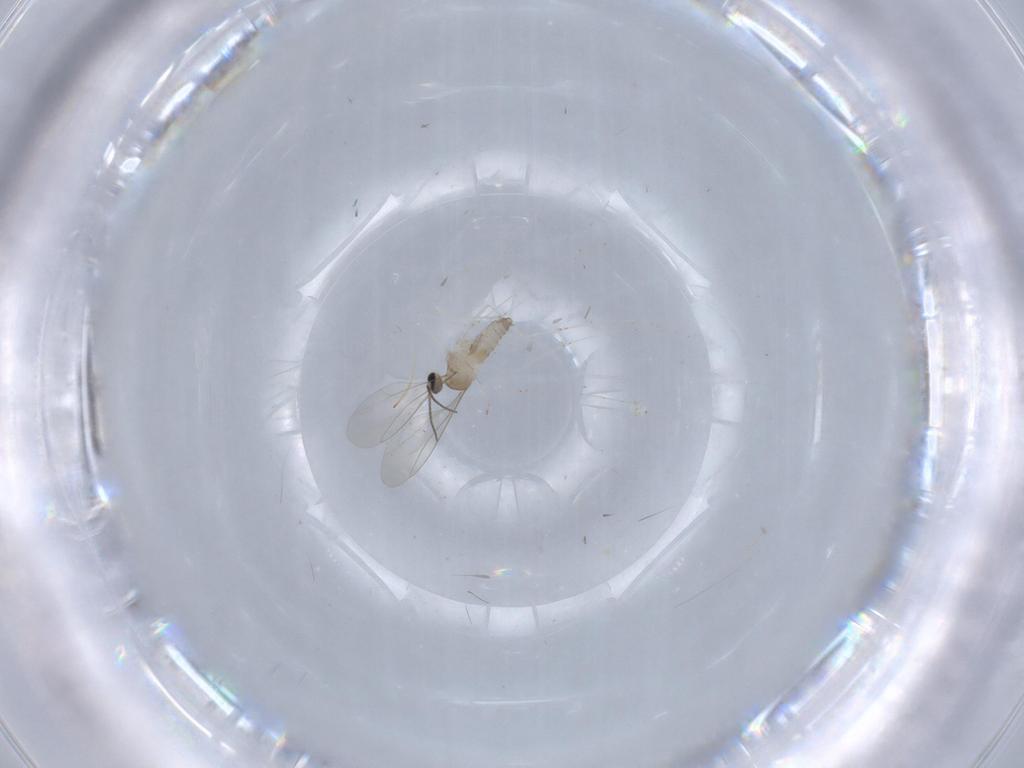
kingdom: Animalia
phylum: Arthropoda
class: Insecta
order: Diptera
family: Cecidomyiidae
